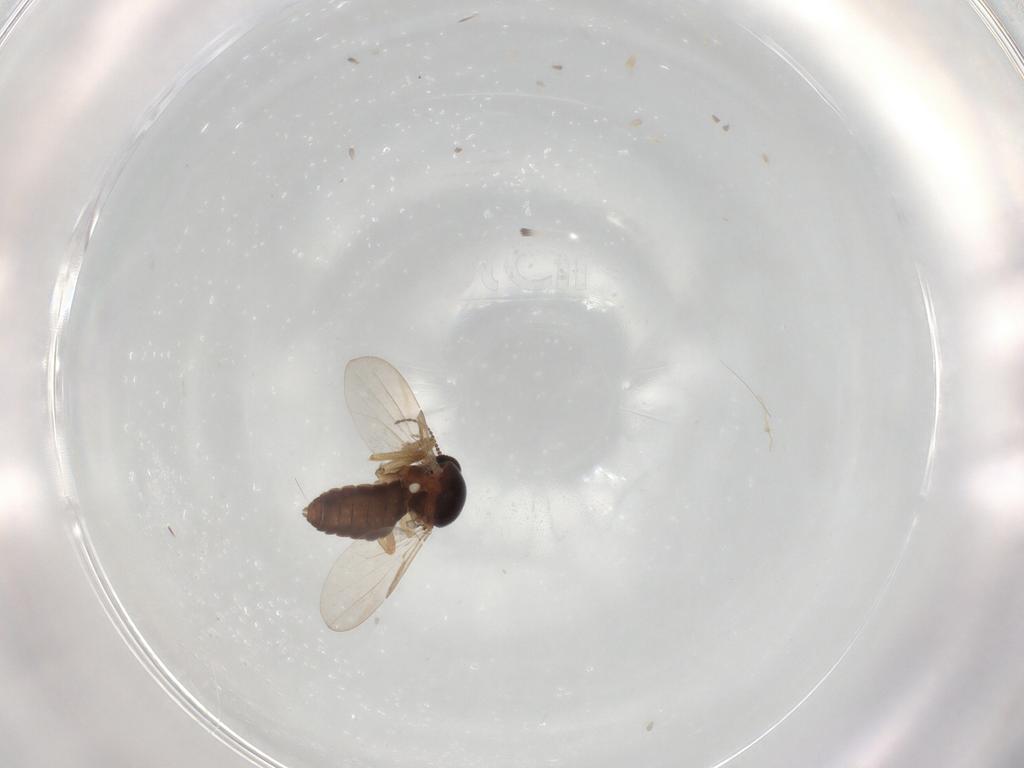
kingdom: Animalia
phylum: Arthropoda
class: Insecta
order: Diptera
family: Ceratopogonidae
